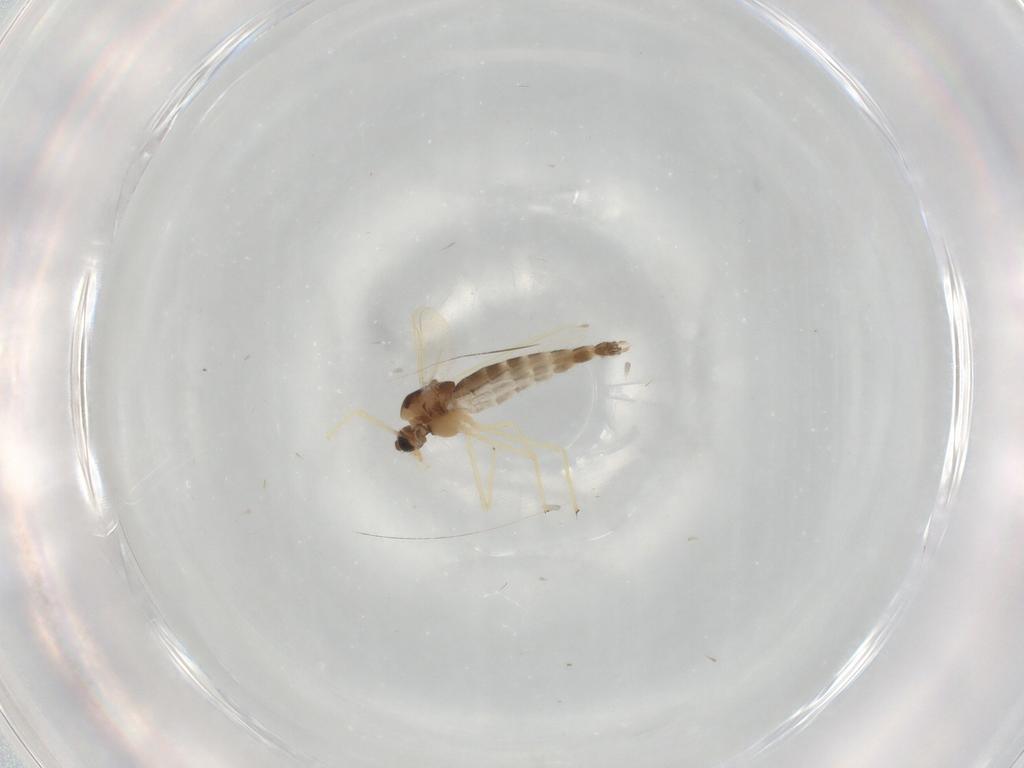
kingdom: Animalia
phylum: Arthropoda
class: Insecta
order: Diptera
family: Chironomidae
